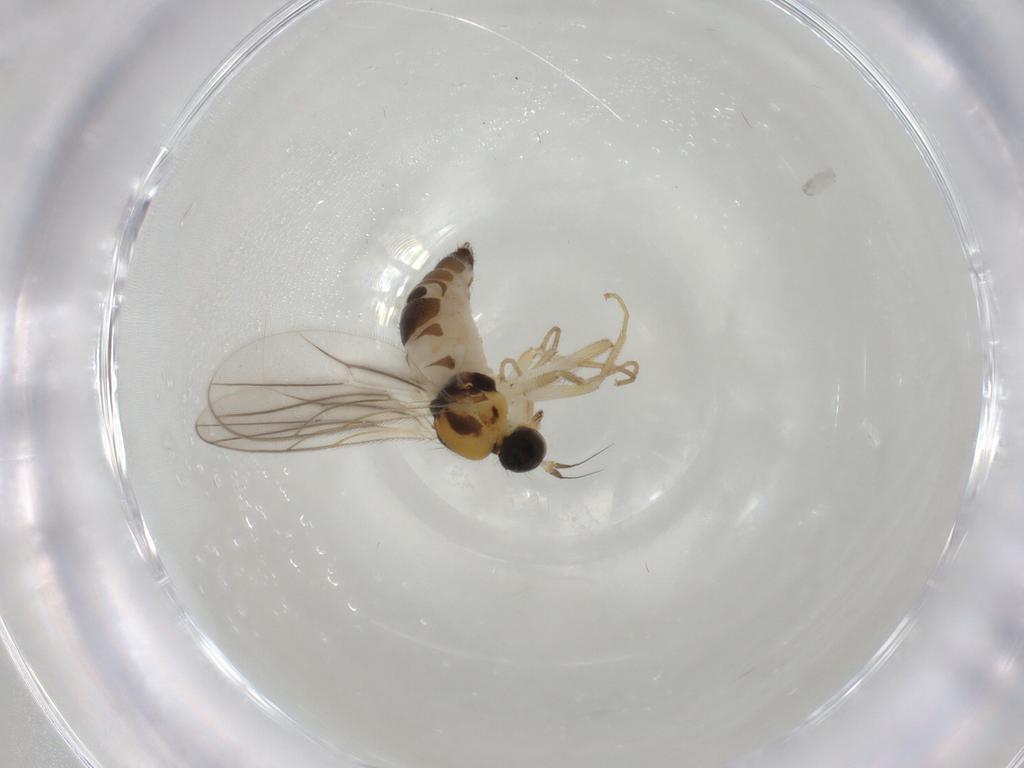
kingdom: Animalia
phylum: Arthropoda
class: Insecta
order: Diptera
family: Hybotidae
